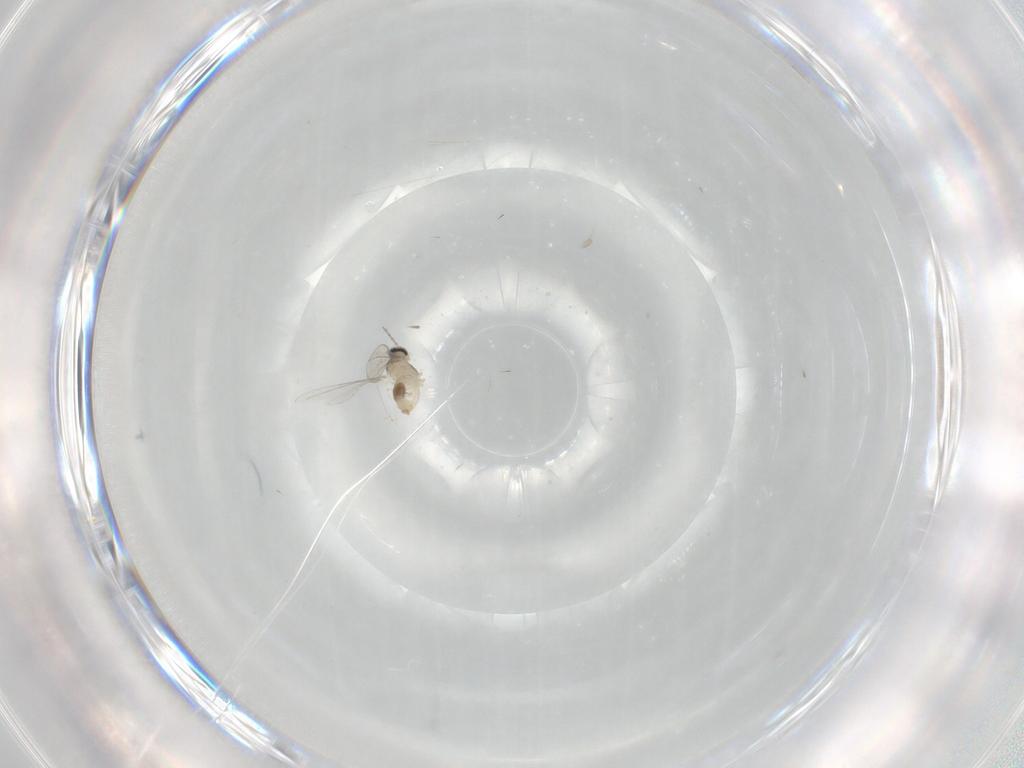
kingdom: Animalia
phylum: Arthropoda
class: Insecta
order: Diptera
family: Cecidomyiidae
